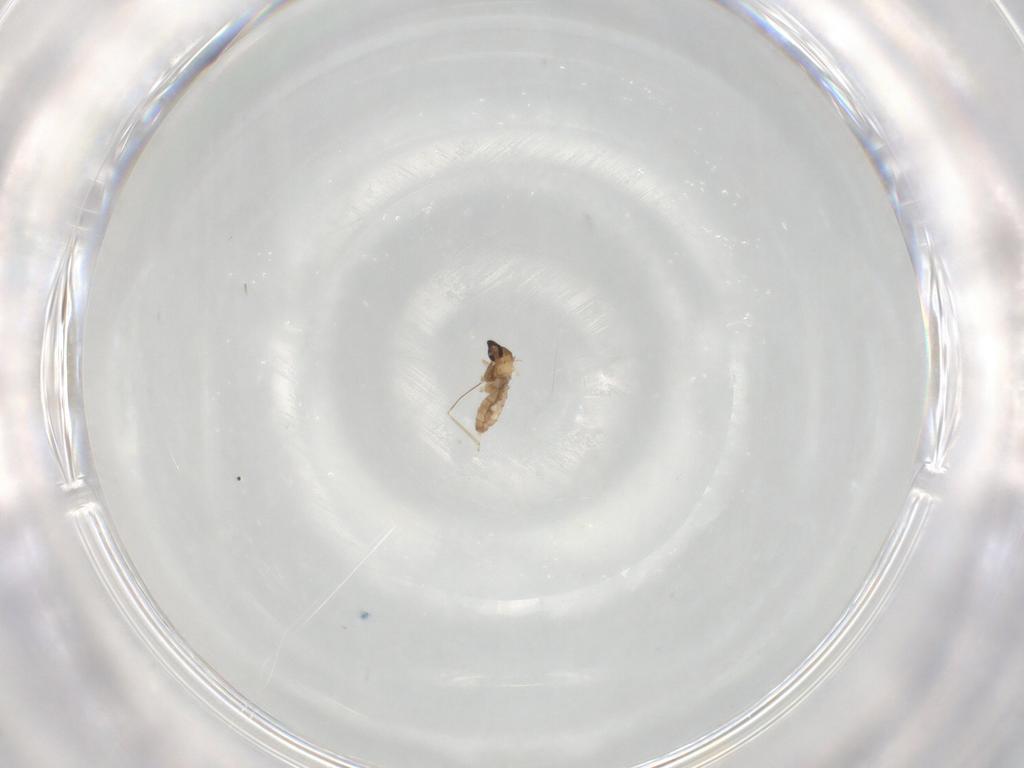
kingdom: Animalia
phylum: Arthropoda
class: Insecta
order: Diptera
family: Cecidomyiidae
